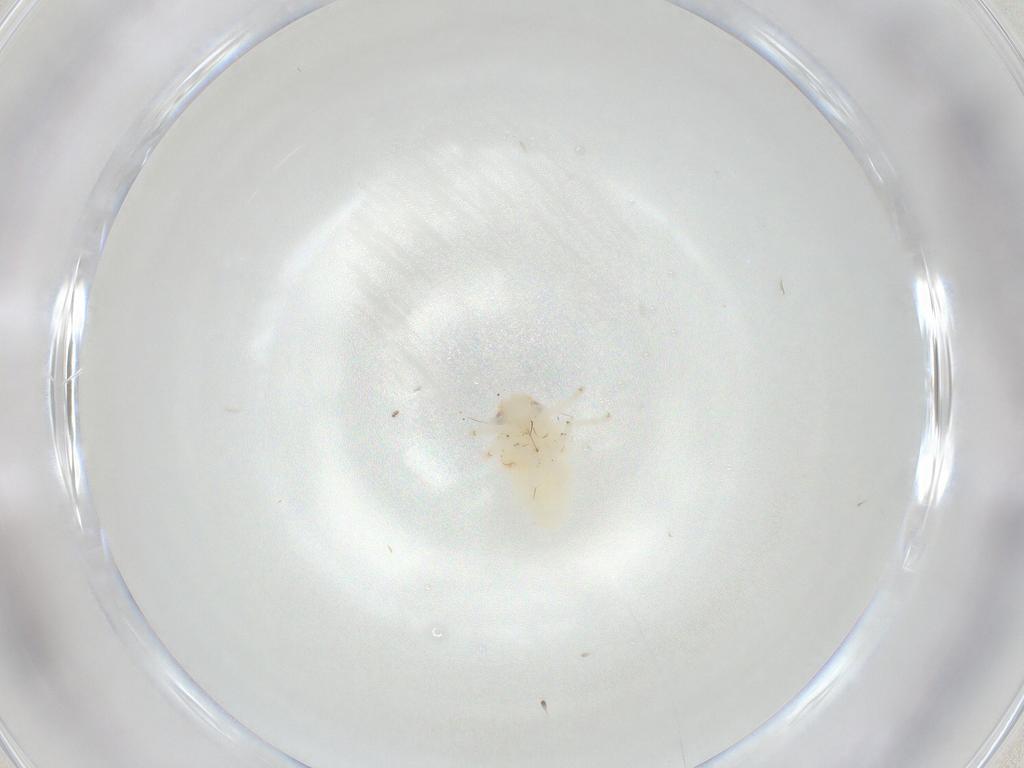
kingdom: Animalia
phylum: Arthropoda
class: Insecta
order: Hemiptera
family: Nogodinidae
